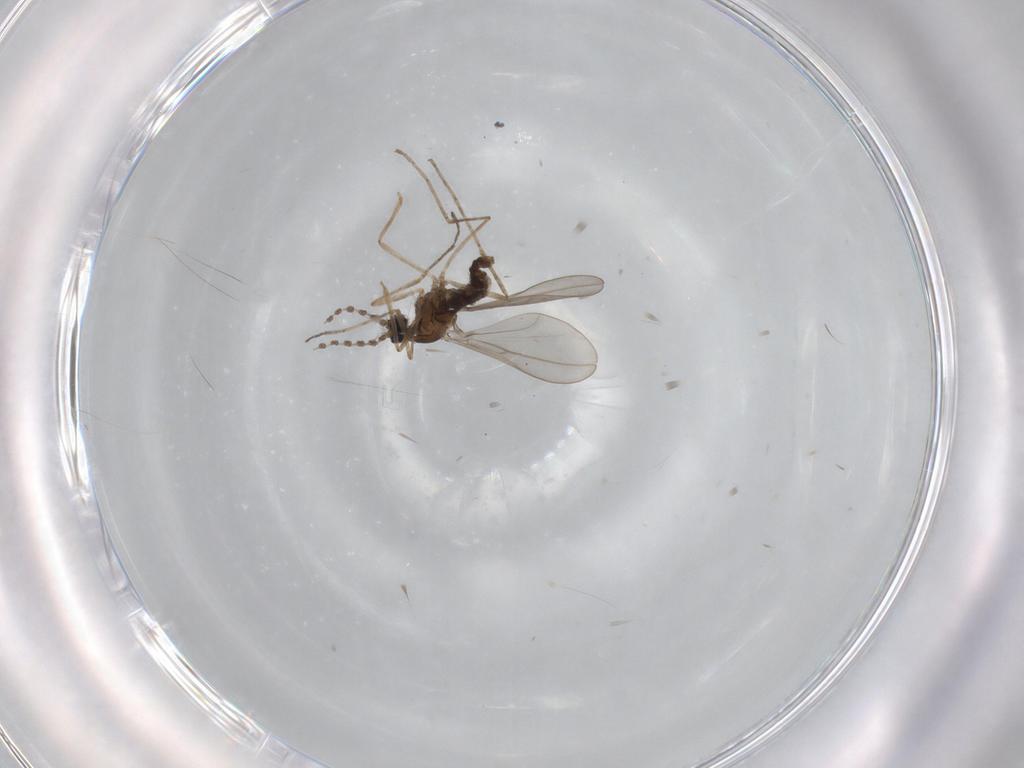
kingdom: Animalia
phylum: Arthropoda
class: Insecta
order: Diptera
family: Cecidomyiidae
